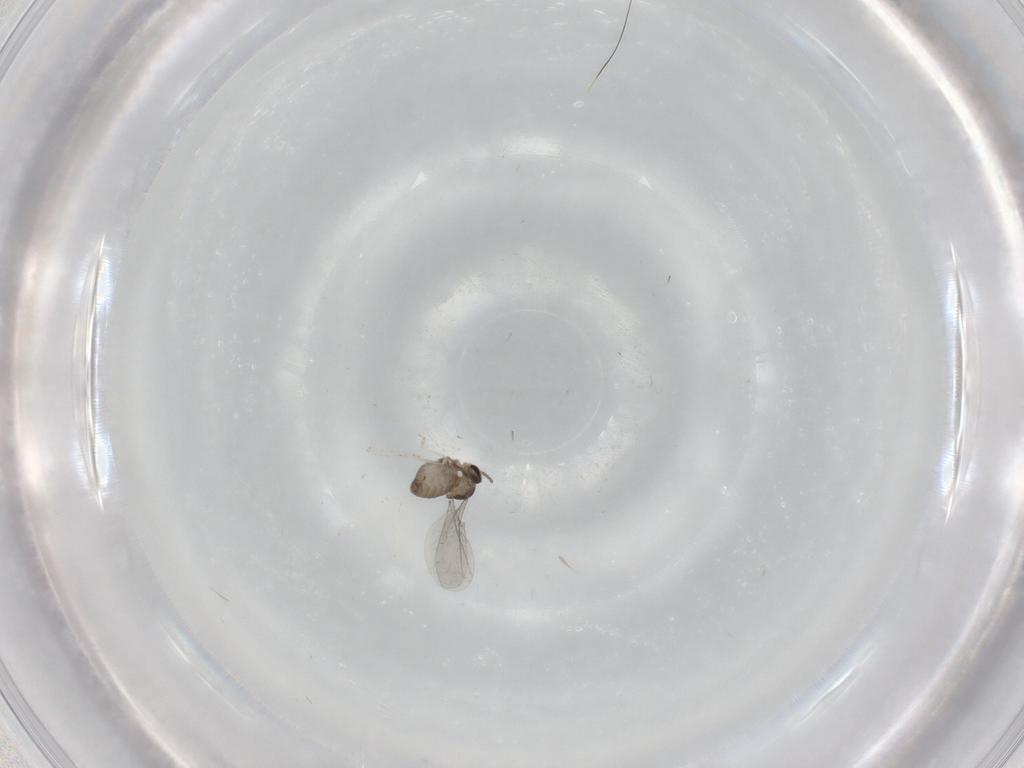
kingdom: Animalia
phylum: Arthropoda
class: Insecta
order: Diptera
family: Cecidomyiidae
